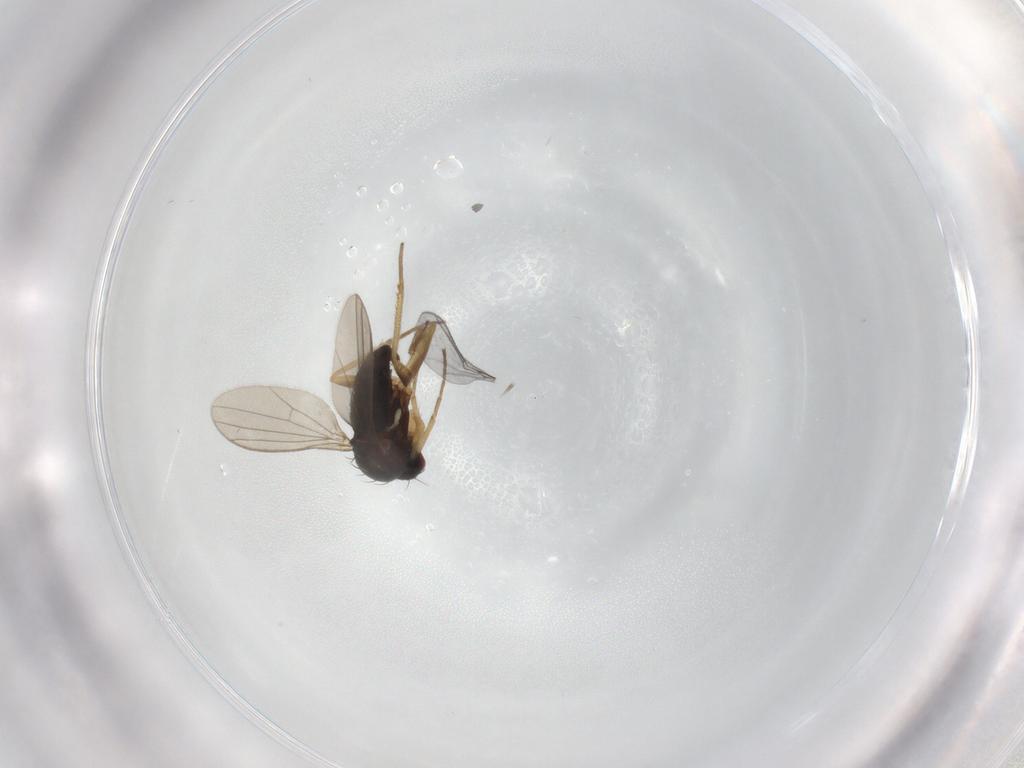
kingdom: Animalia
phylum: Arthropoda
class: Insecta
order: Diptera
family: Dolichopodidae
